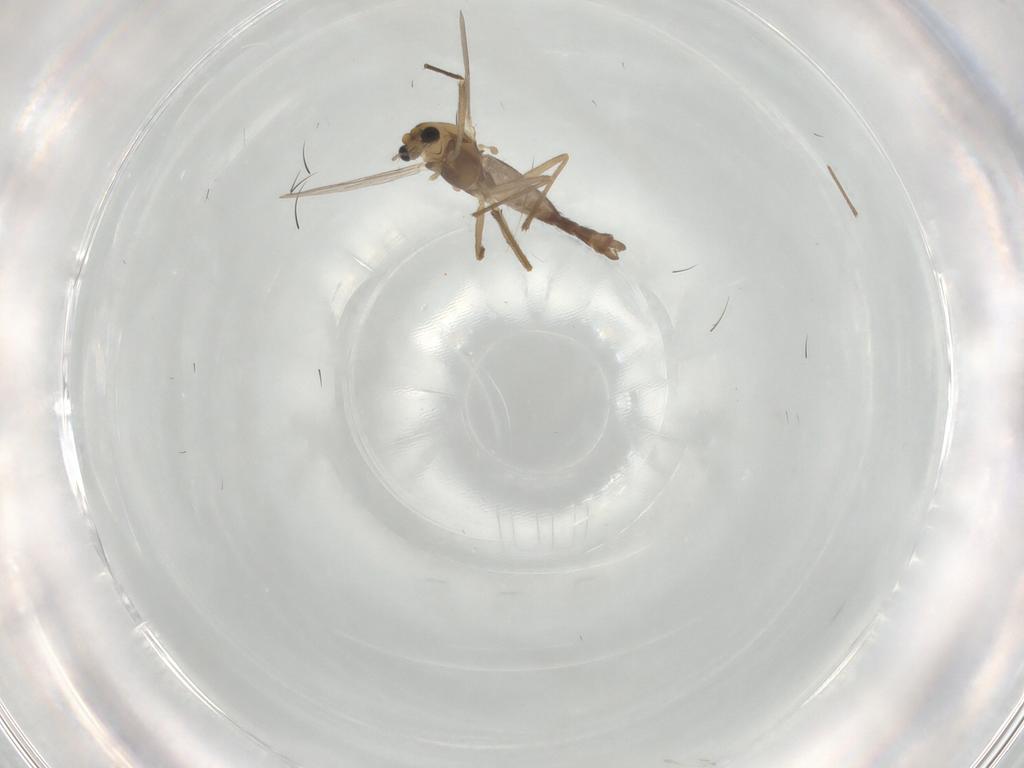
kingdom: Animalia
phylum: Arthropoda
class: Insecta
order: Diptera
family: Chironomidae
